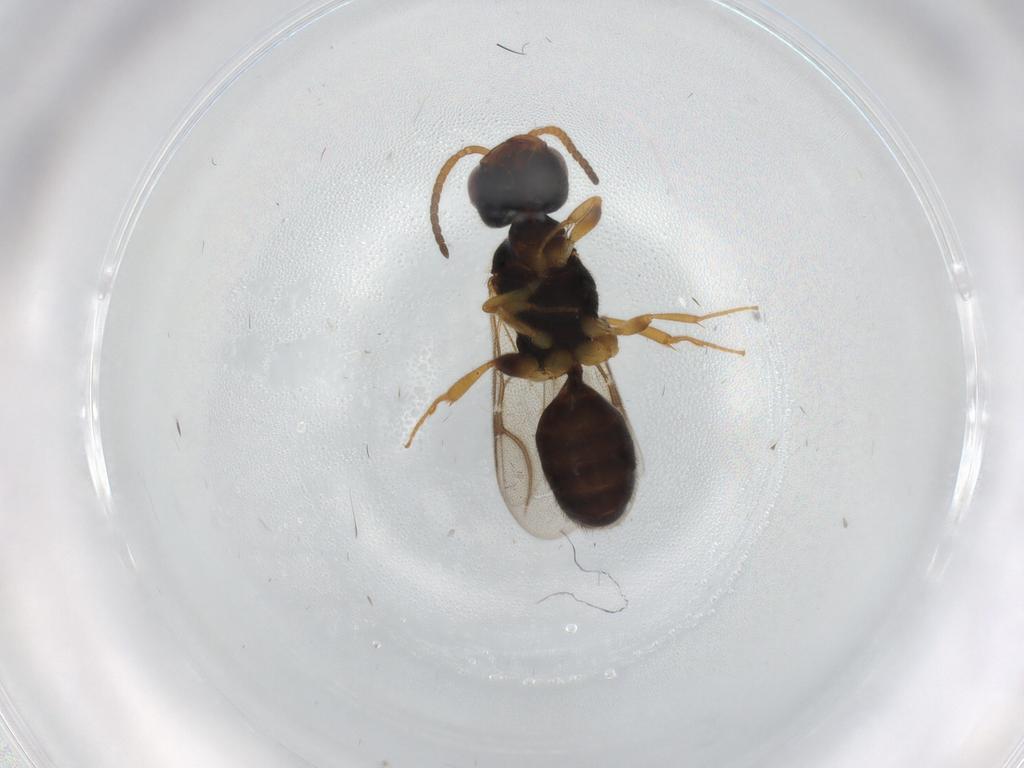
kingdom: Animalia
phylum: Arthropoda
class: Insecta
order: Hymenoptera
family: Bethylidae
